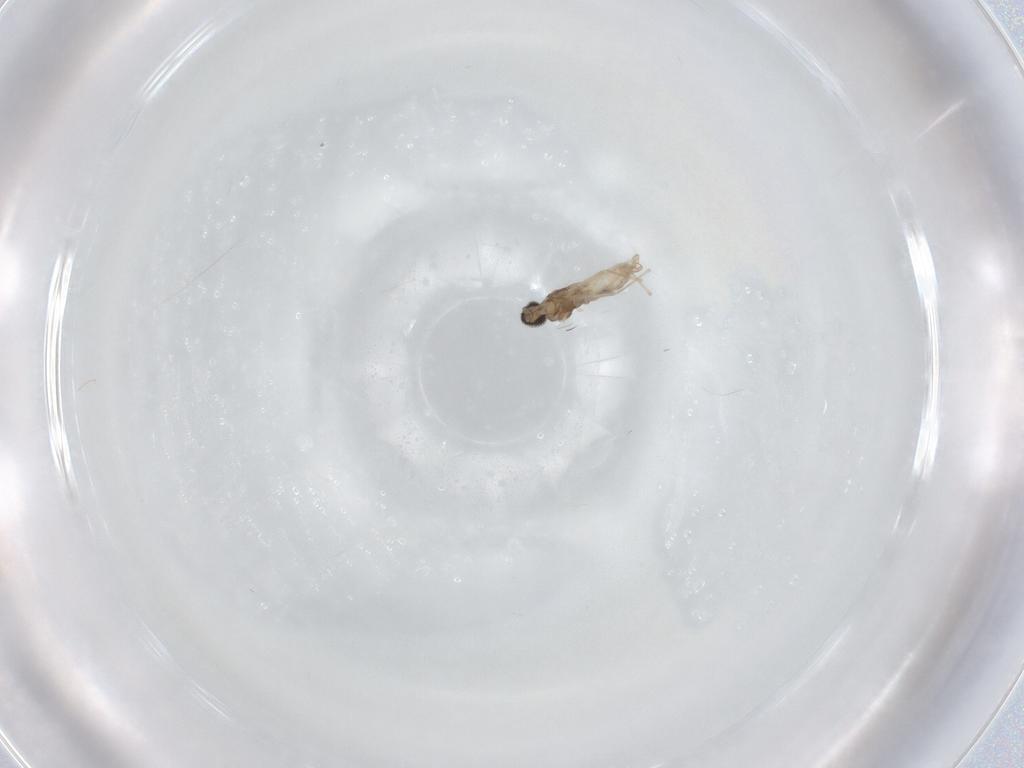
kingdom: Animalia
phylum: Arthropoda
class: Insecta
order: Diptera
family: Cecidomyiidae
